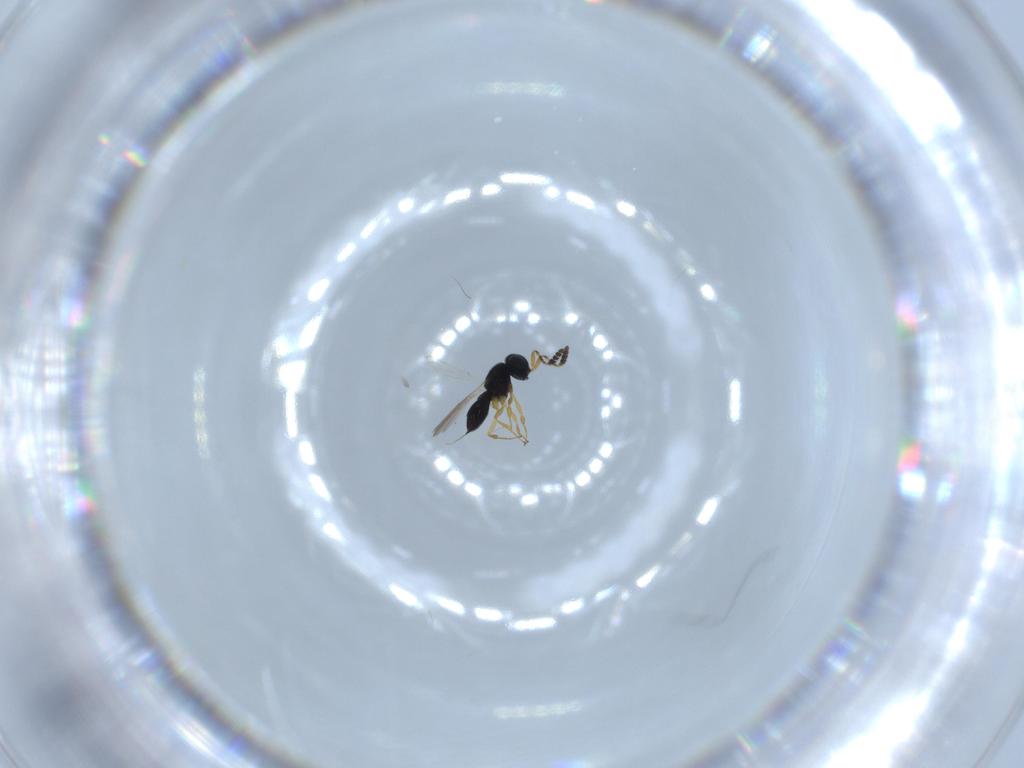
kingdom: Animalia
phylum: Arthropoda
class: Insecta
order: Hymenoptera
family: Scelionidae
